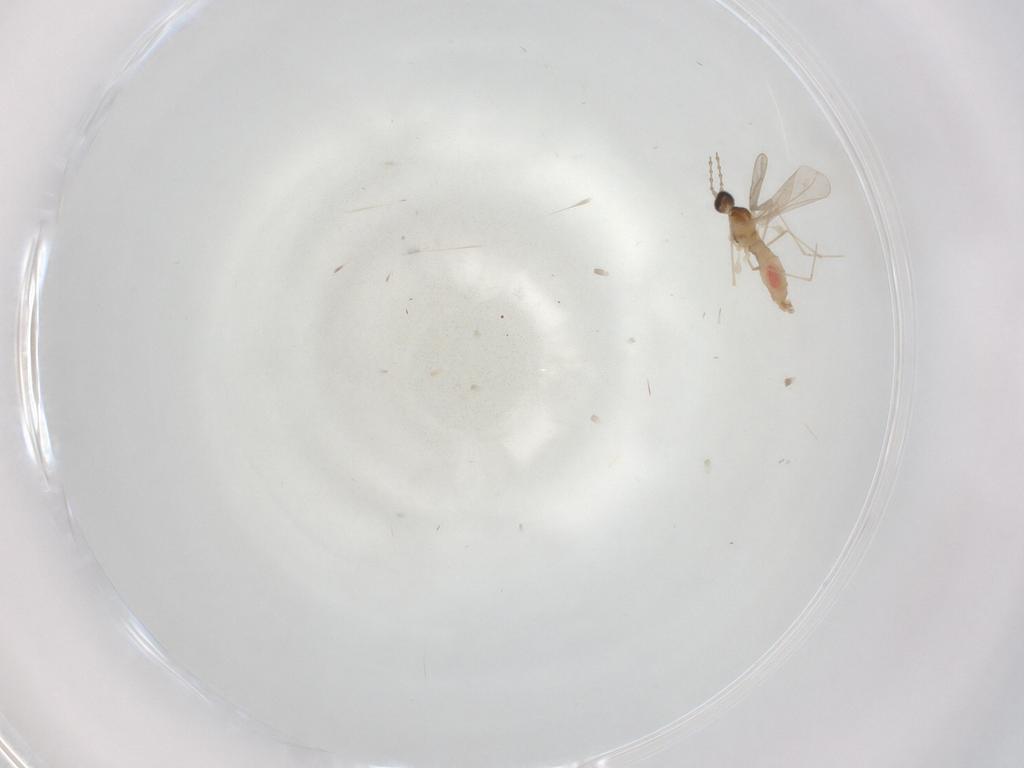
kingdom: Animalia
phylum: Arthropoda
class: Insecta
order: Diptera
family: Cecidomyiidae
